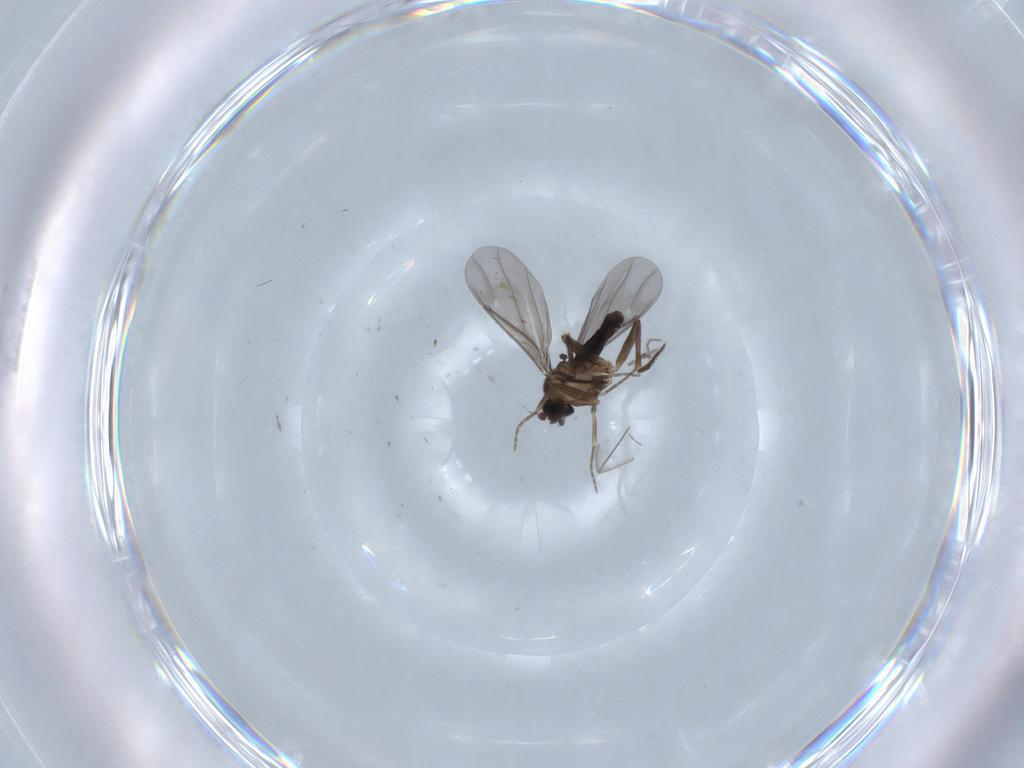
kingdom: Animalia
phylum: Arthropoda
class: Insecta
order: Diptera
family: Phoridae
